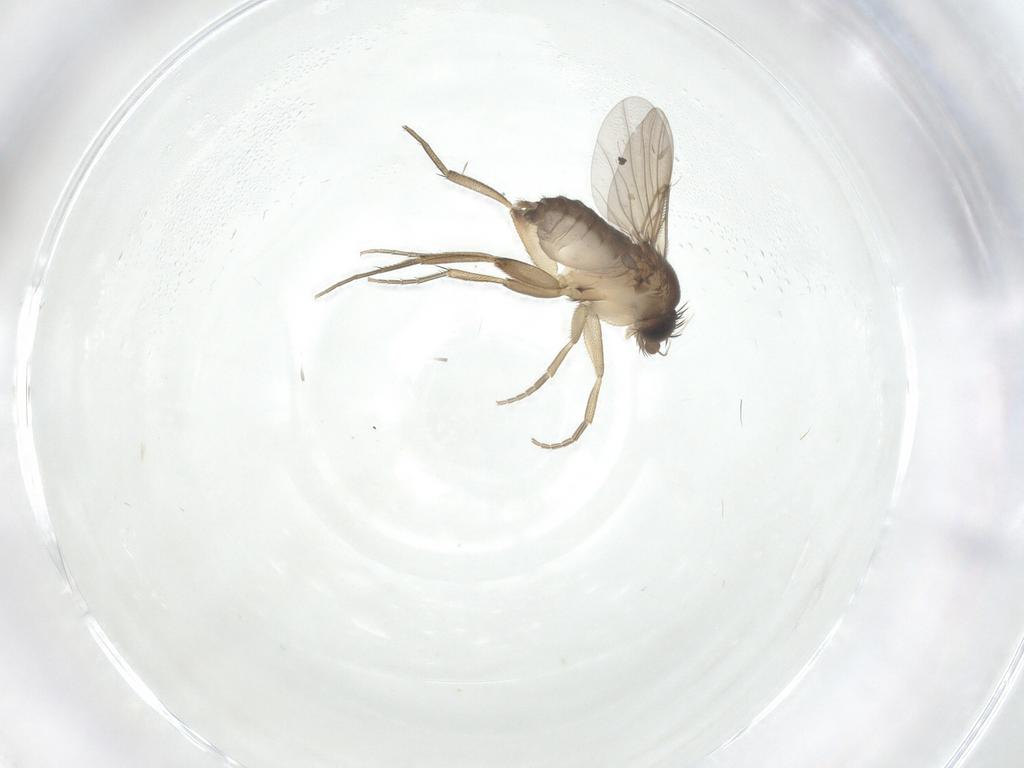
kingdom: Animalia
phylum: Arthropoda
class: Insecta
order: Diptera
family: Phoridae
